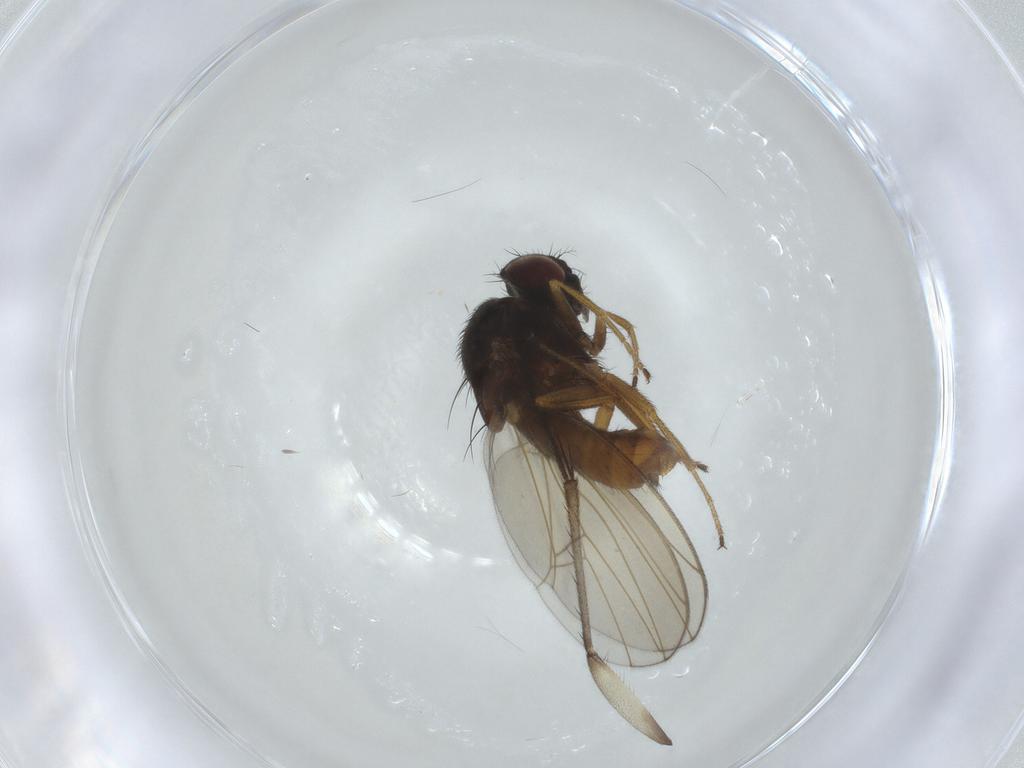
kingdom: Animalia
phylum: Arthropoda
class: Insecta
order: Diptera
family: Drosophilidae
